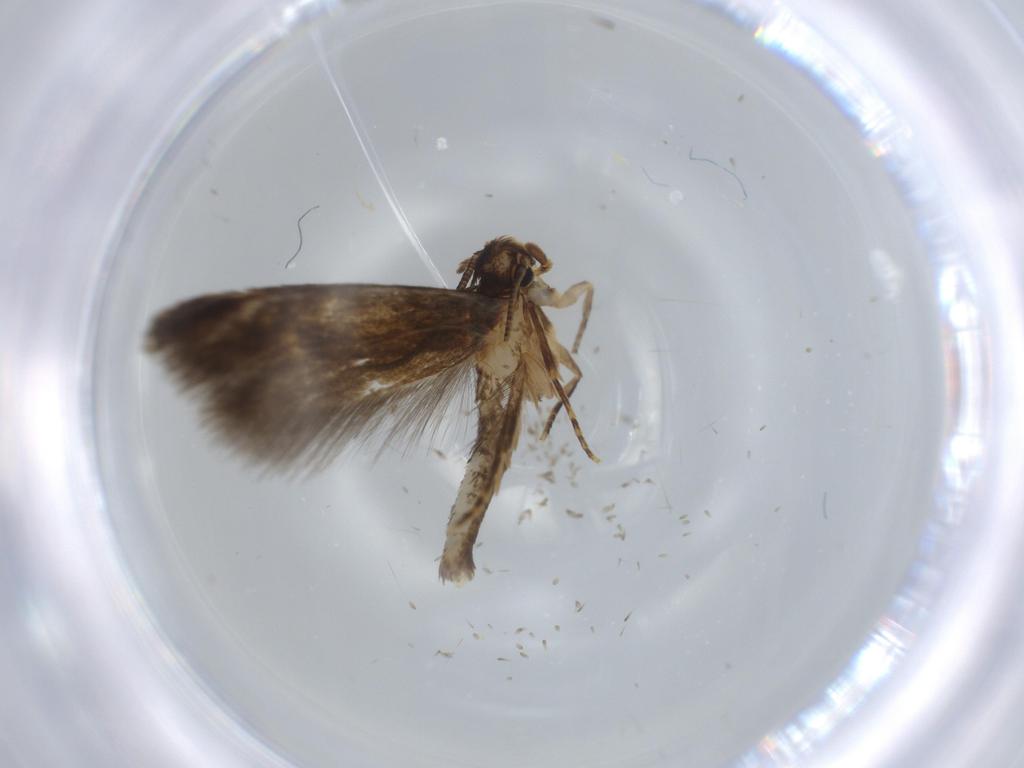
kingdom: Animalia
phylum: Arthropoda
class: Insecta
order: Lepidoptera
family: Tineidae
